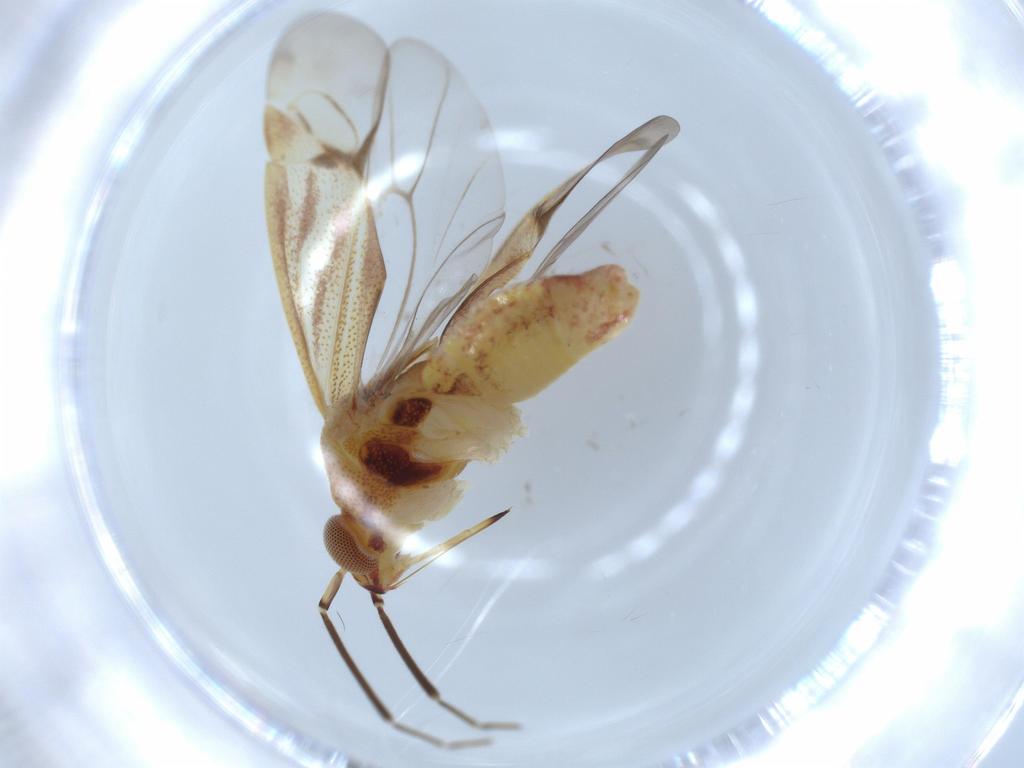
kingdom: Animalia
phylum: Arthropoda
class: Insecta
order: Hemiptera
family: Miridae
